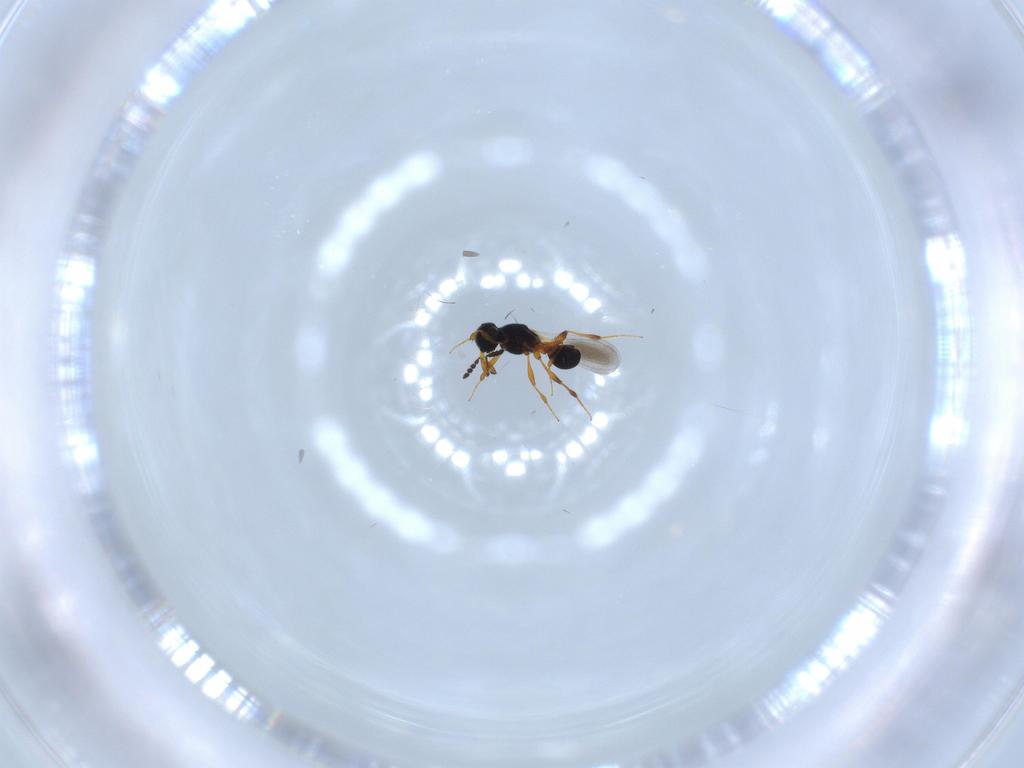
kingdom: Animalia
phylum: Arthropoda
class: Insecta
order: Hymenoptera
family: Platygastridae
